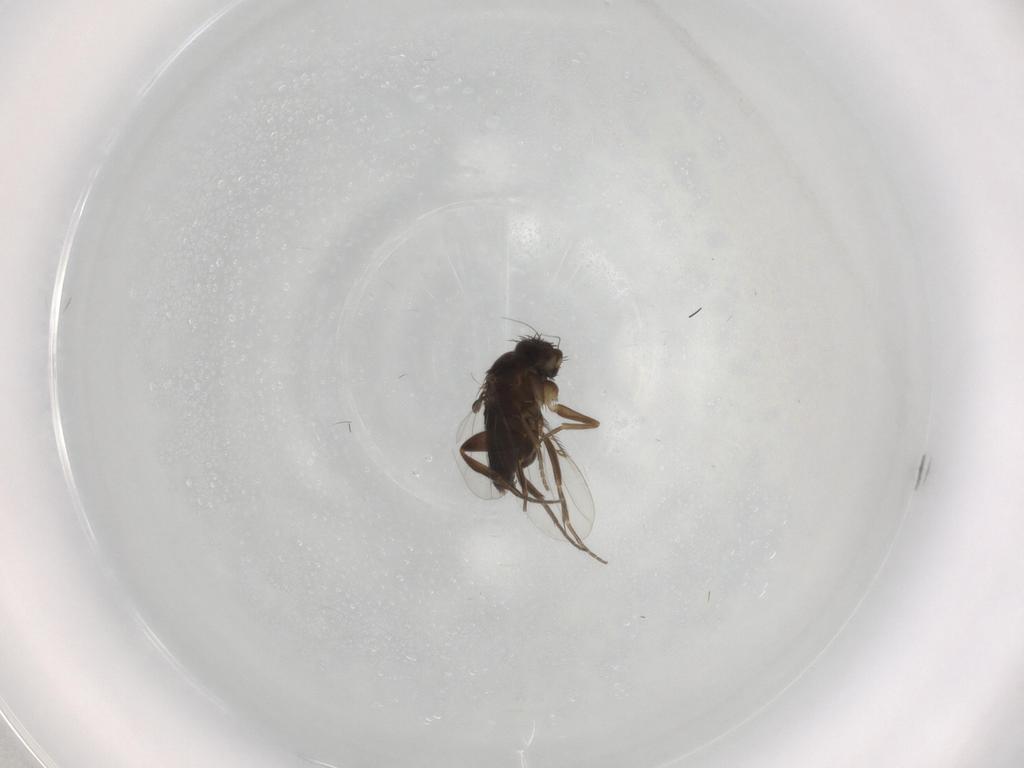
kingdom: Animalia
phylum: Arthropoda
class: Insecta
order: Diptera
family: Phoridae
